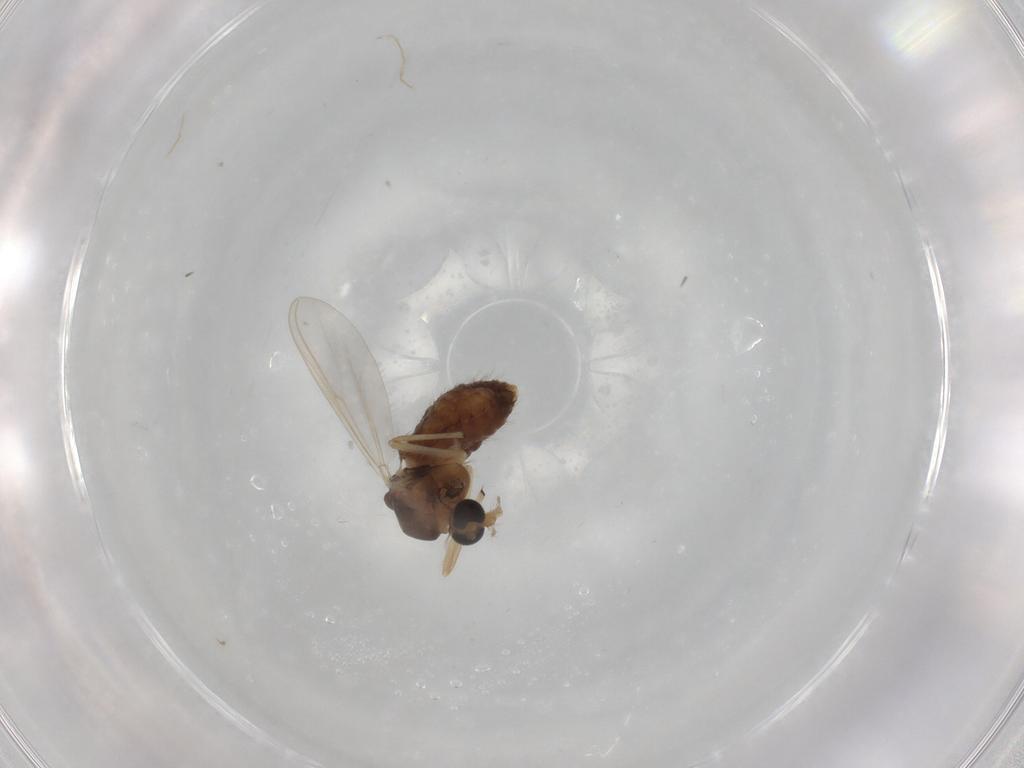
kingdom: Animalia
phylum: Arthropoda
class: Insecta
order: Diptera
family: Chironomidae
